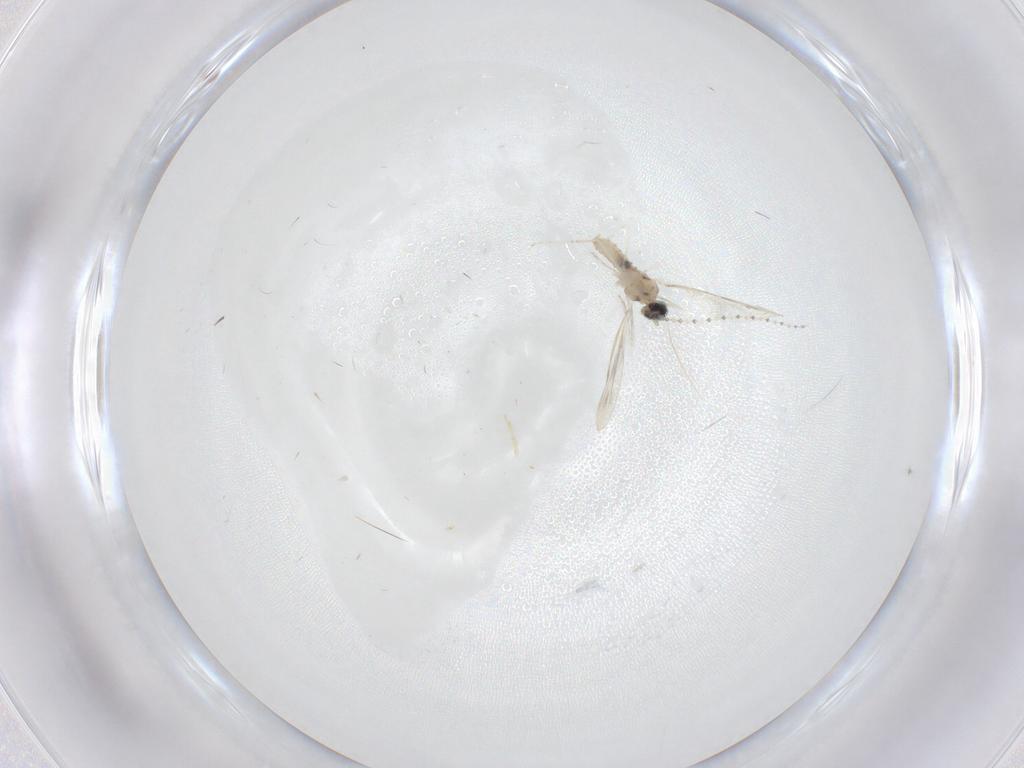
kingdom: Animalia
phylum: Arthropoda
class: Insecta
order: Diptera
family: Cecidomyiidae
